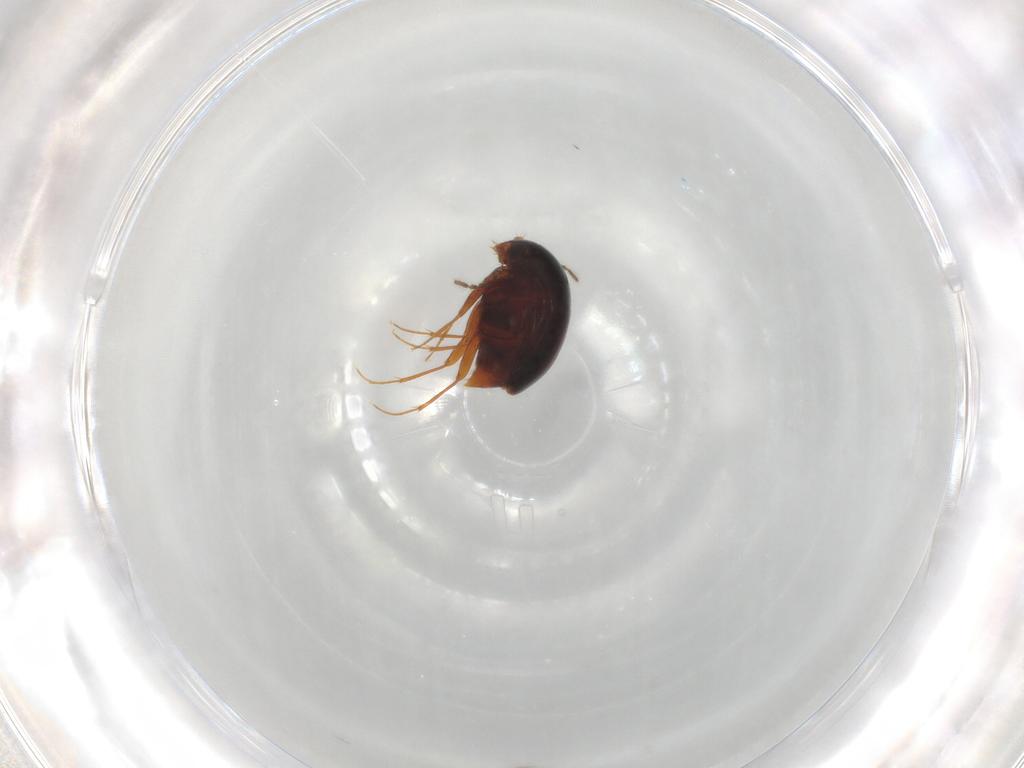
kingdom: Animalia
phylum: Arthropoda
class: Insecta
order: Coleoptera
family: Staphylinidae
